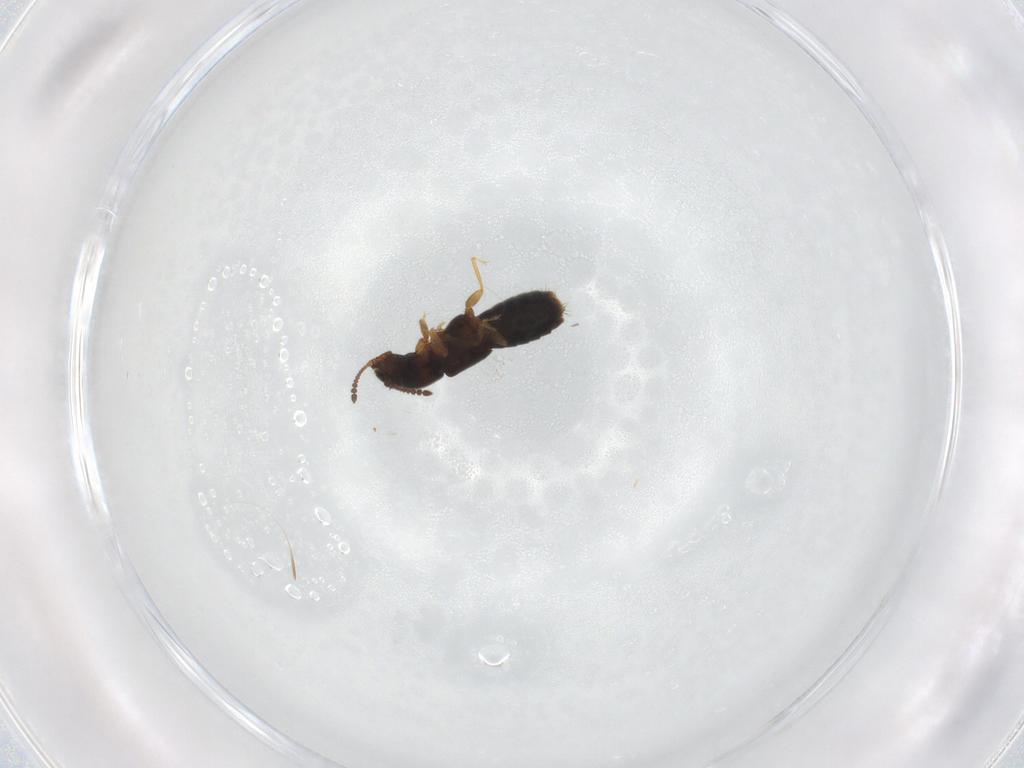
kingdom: Animalia
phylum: Arthropoda
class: Insecta
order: Coleoptera
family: Staphylinidae
